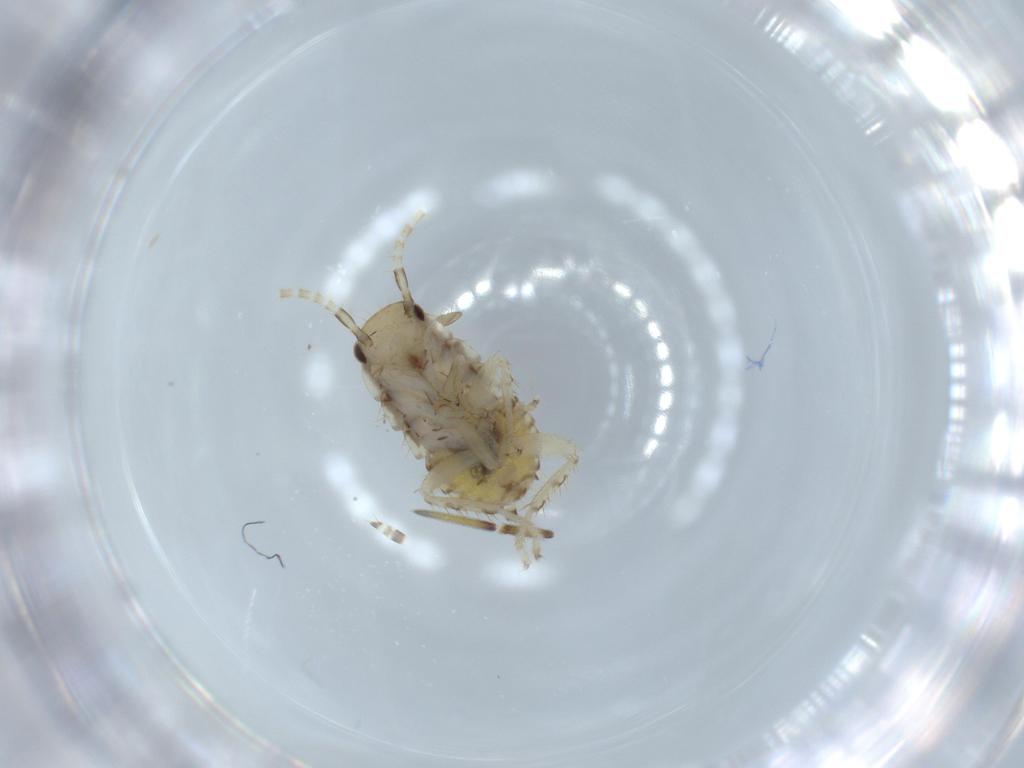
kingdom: Animalia
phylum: Arthropoda
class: Insecta
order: Blattodea
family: Ectobiidae
